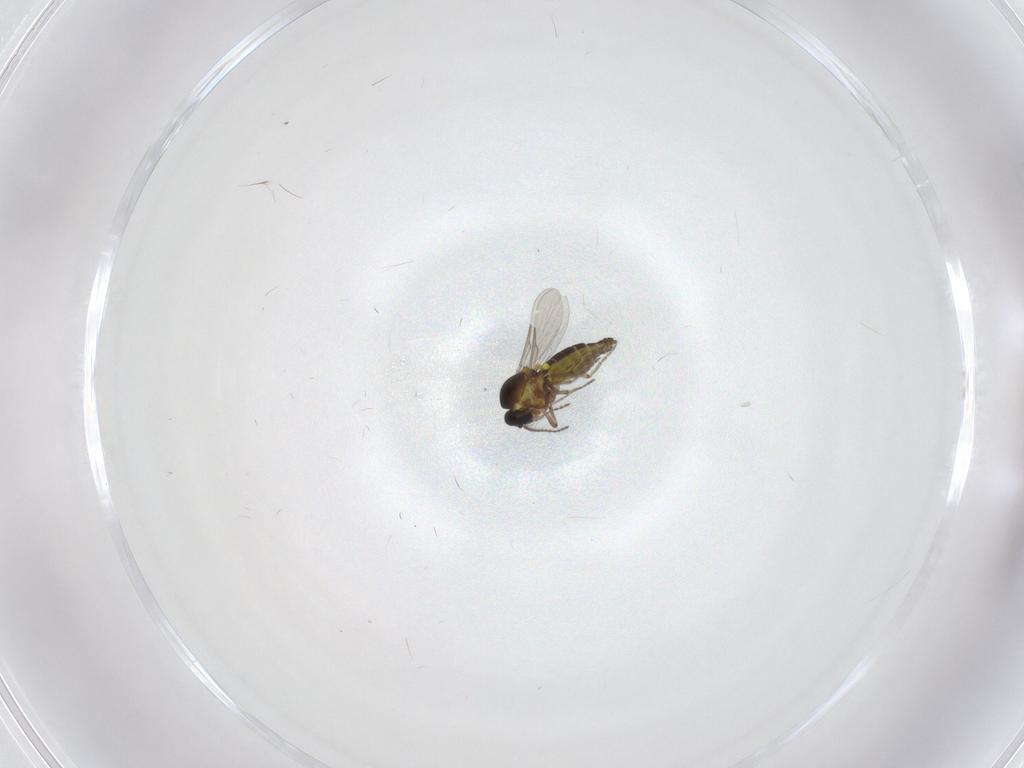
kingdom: Animalia
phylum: Arthropoda
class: Insecta
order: Diptera
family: Ceratopogonidae
